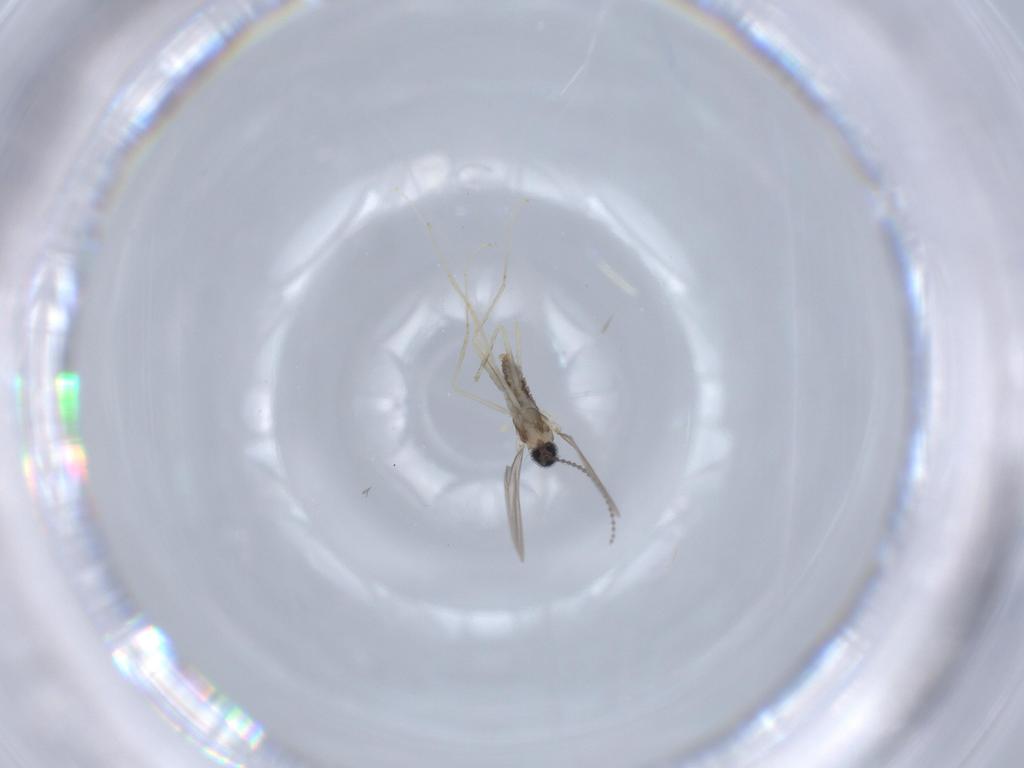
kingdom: Animalia
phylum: Arthropoda
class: Insecta
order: Diptera
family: Cecidomyiidae
